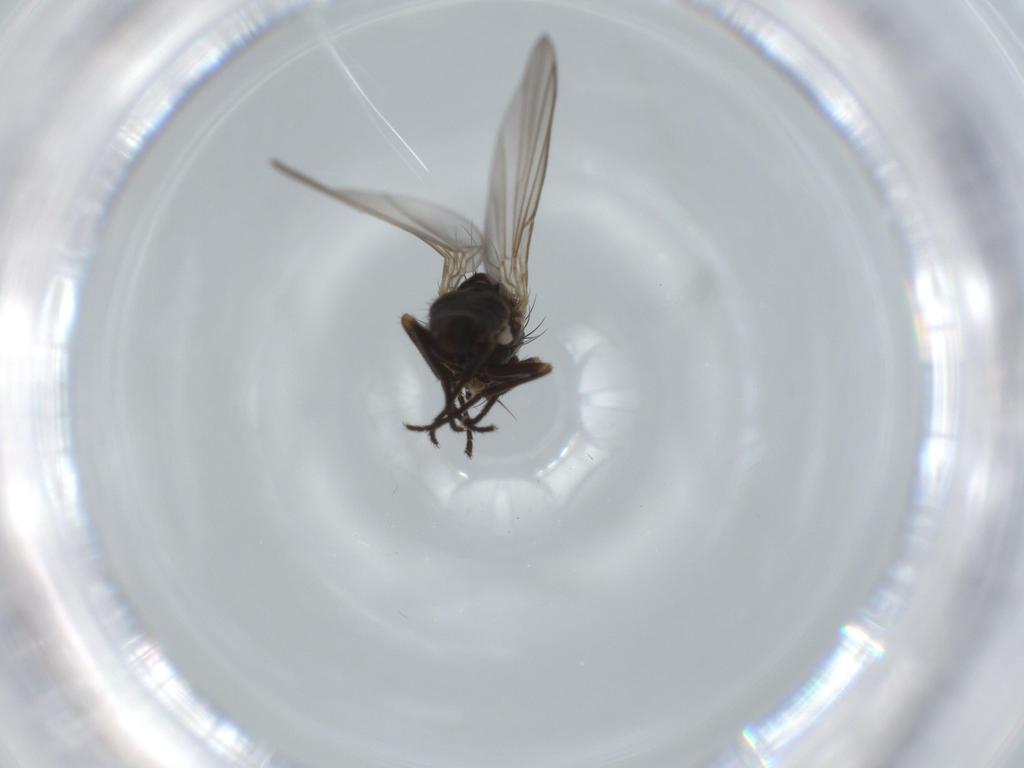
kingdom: Animalia
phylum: Arthropoda
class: Insecta
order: Diptera
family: Agromyzidae
